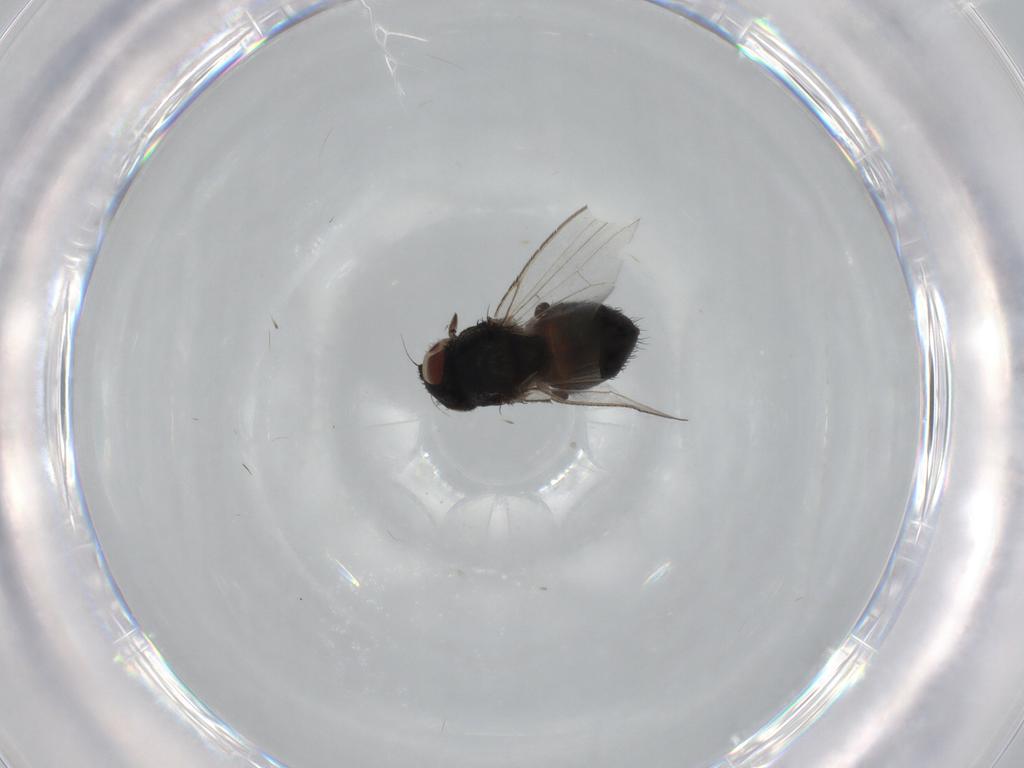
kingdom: Animalia
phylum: Arthropoda
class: Insecta
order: Diptera
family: Milichiidae
